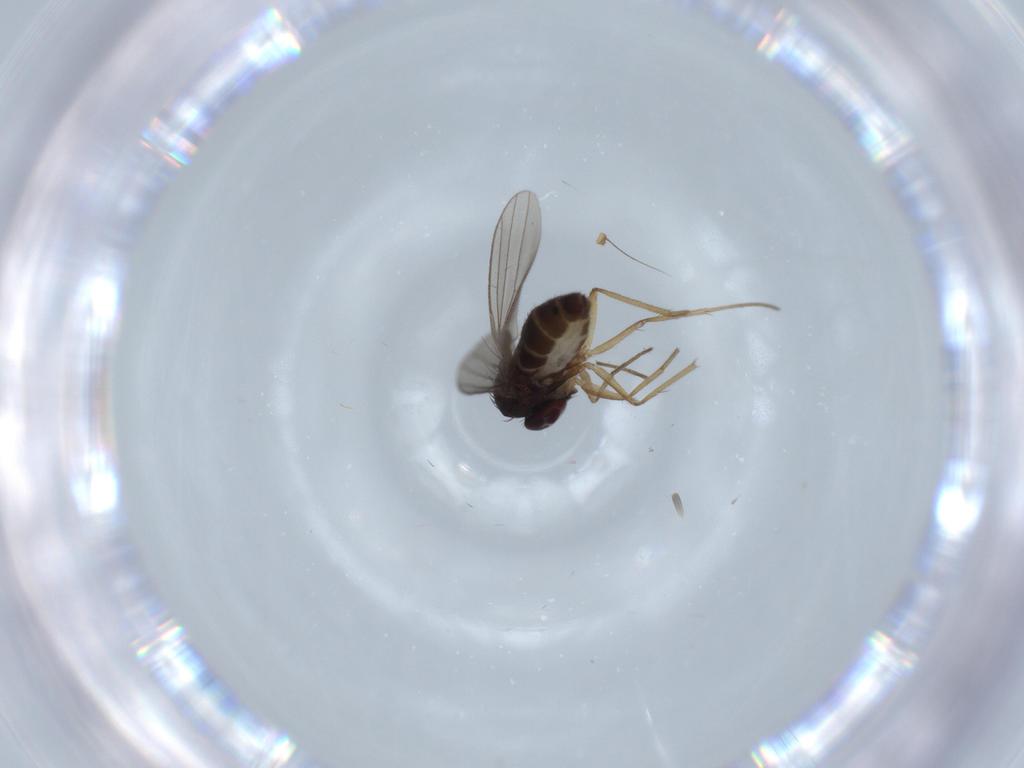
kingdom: Animalia
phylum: Arthropoda
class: Insecta
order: Diptera
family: Dolichopodidae
